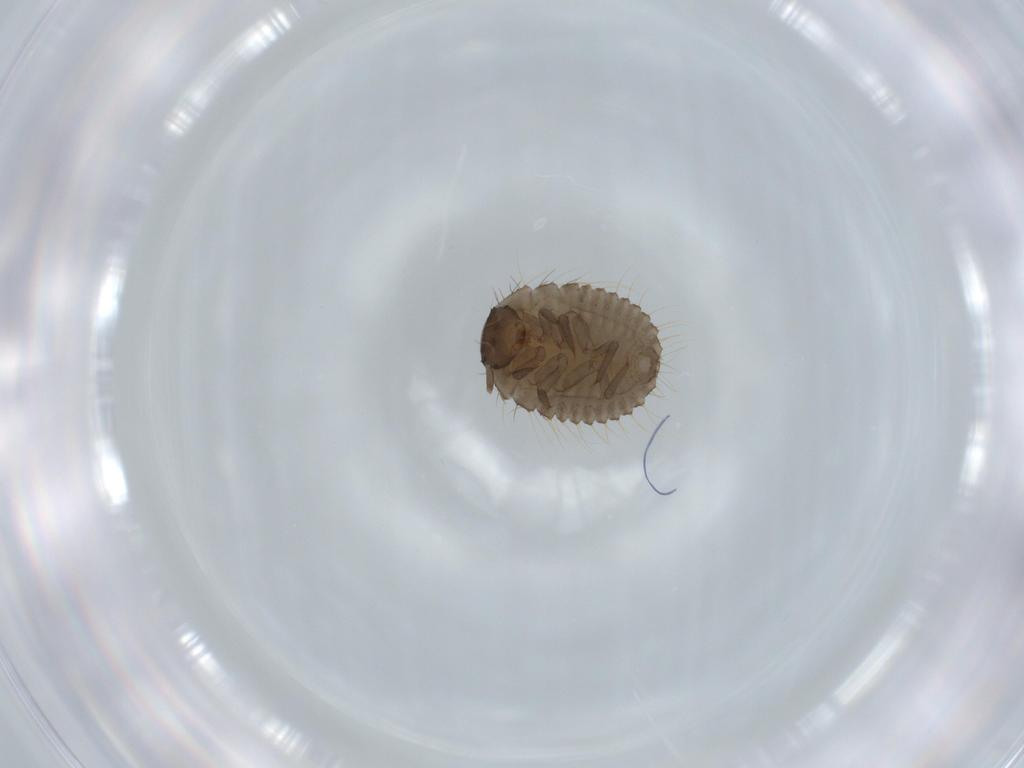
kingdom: Animalia
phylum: Arthropoda
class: Insecta
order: Coleoptera
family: Endomychidae
